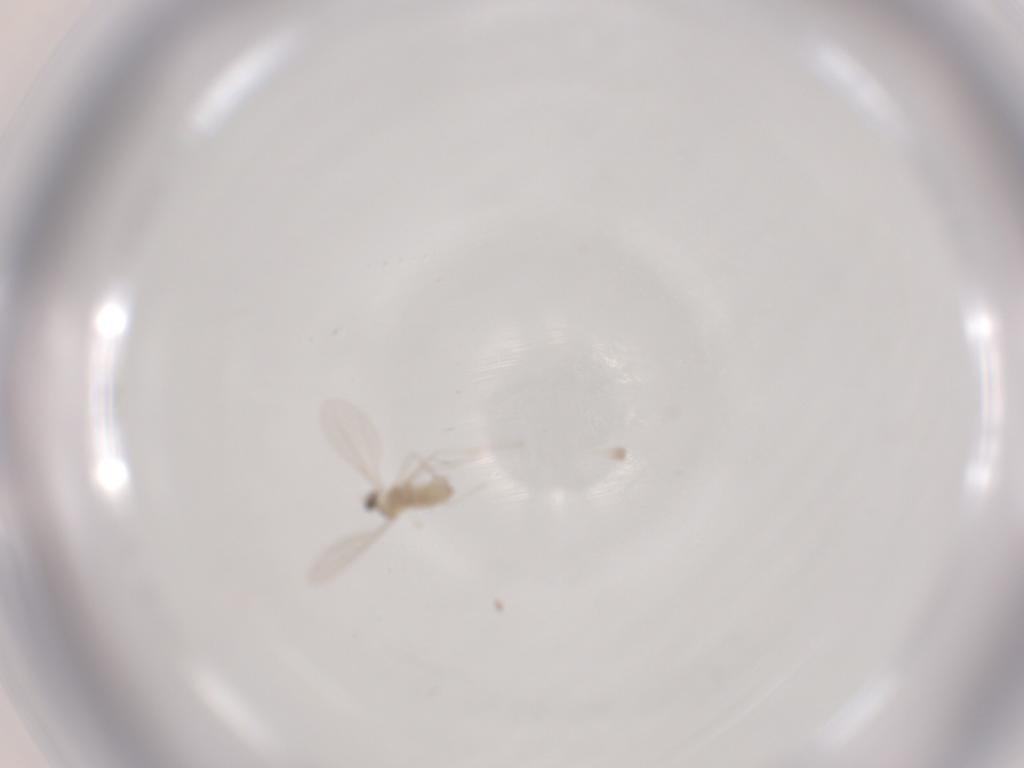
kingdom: Animalia
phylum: Arthropoda
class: Insecta
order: Diptera
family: Cecidomyiidae
